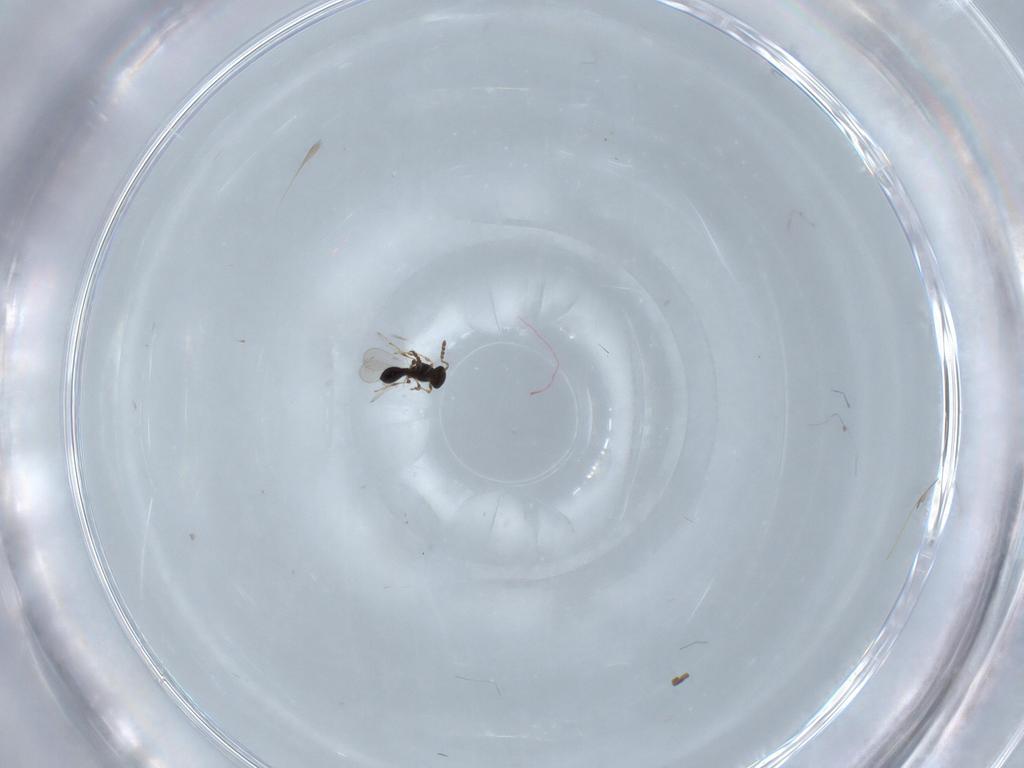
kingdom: Animalia
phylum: Arthropoda
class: Insecta
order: Hymenoptera
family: Platygastridae
